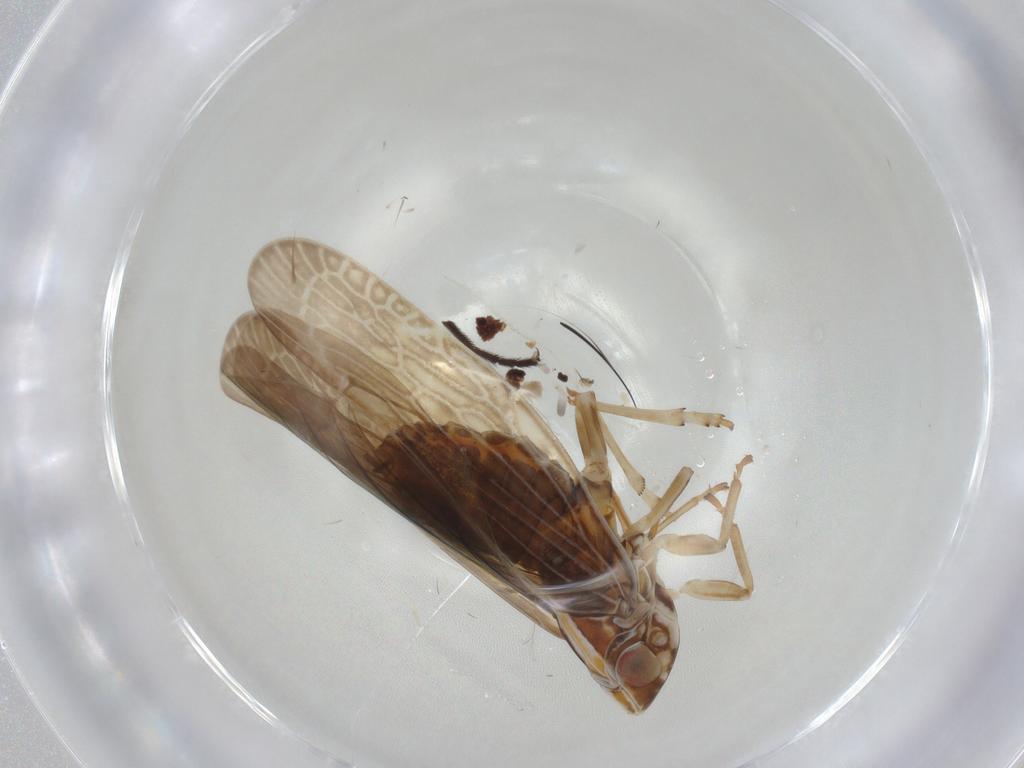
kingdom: Animalia
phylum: Arthropoda
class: Insecta
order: Hemiptera
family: Achilidae
